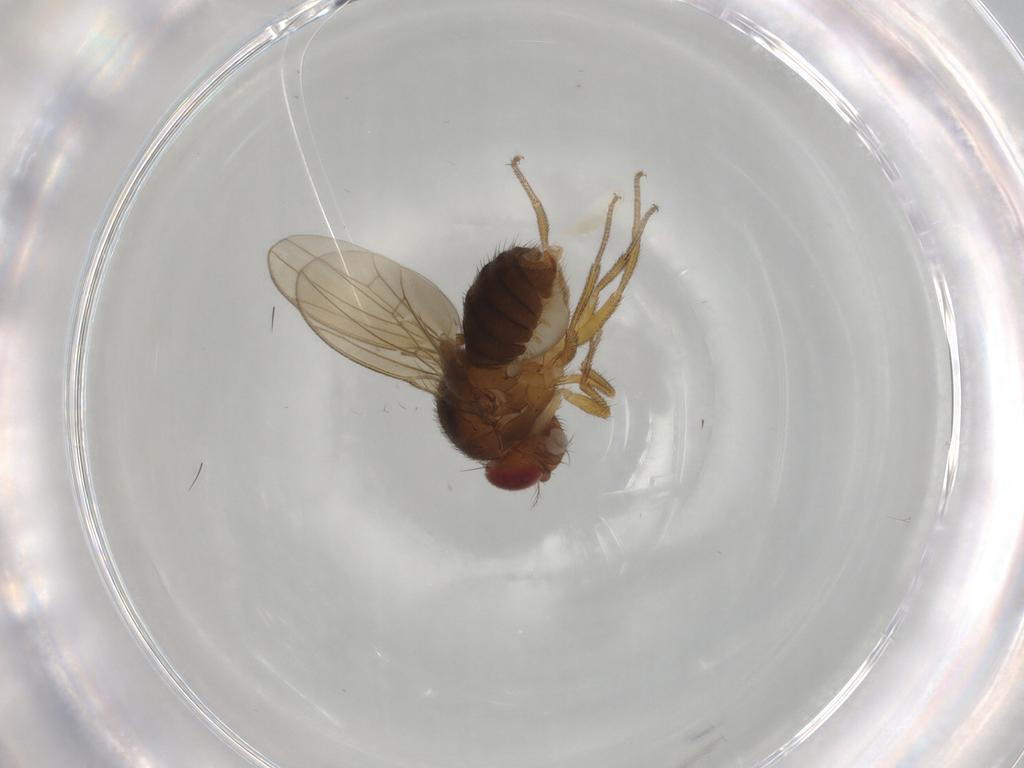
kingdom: Animalia
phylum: Arthropoda
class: Insecta
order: Diptera
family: Drosophilidae
